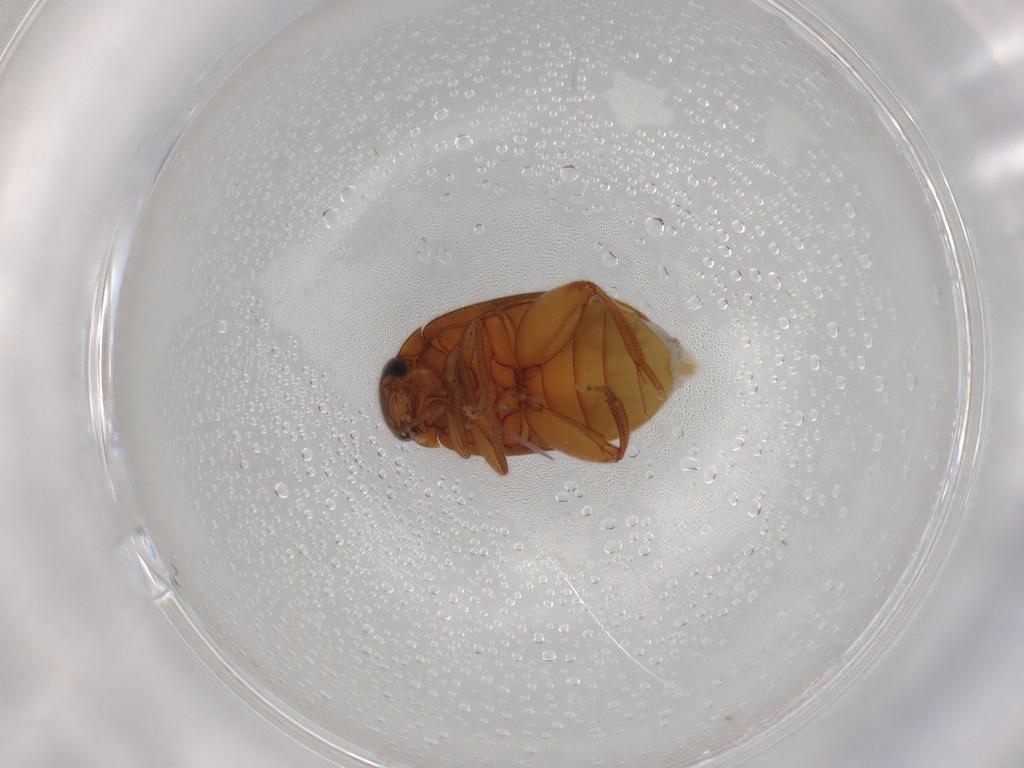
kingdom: Animalia
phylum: Arthropoda
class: Insecta
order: Coleoptera
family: Scirtidae
